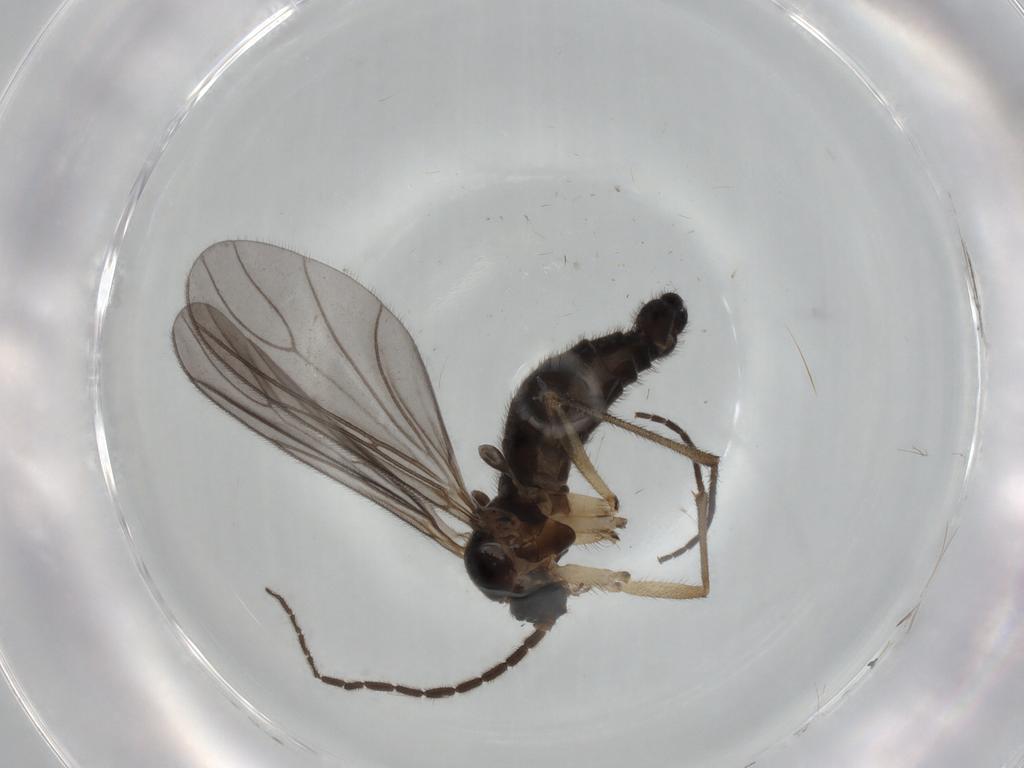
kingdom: Animalia
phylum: Arthropoda
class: Insecta
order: Diptera
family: Sciaridae
